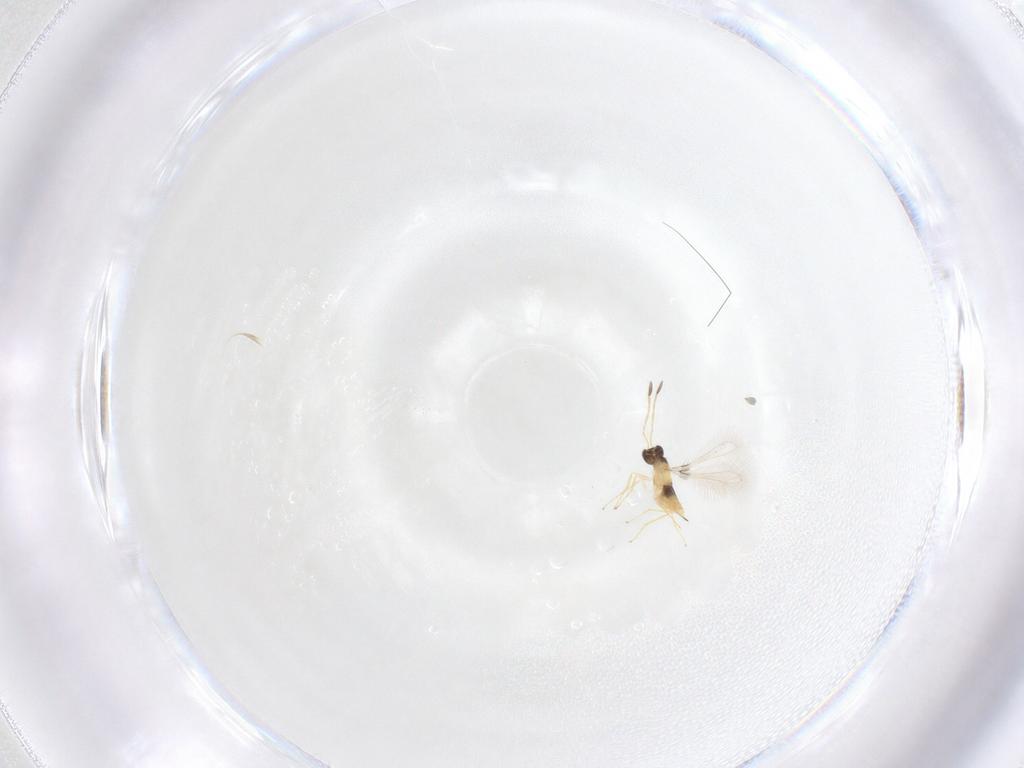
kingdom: Animalia
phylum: Arthropoda
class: Insecta
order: Hymenoptera
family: Mymaridae
